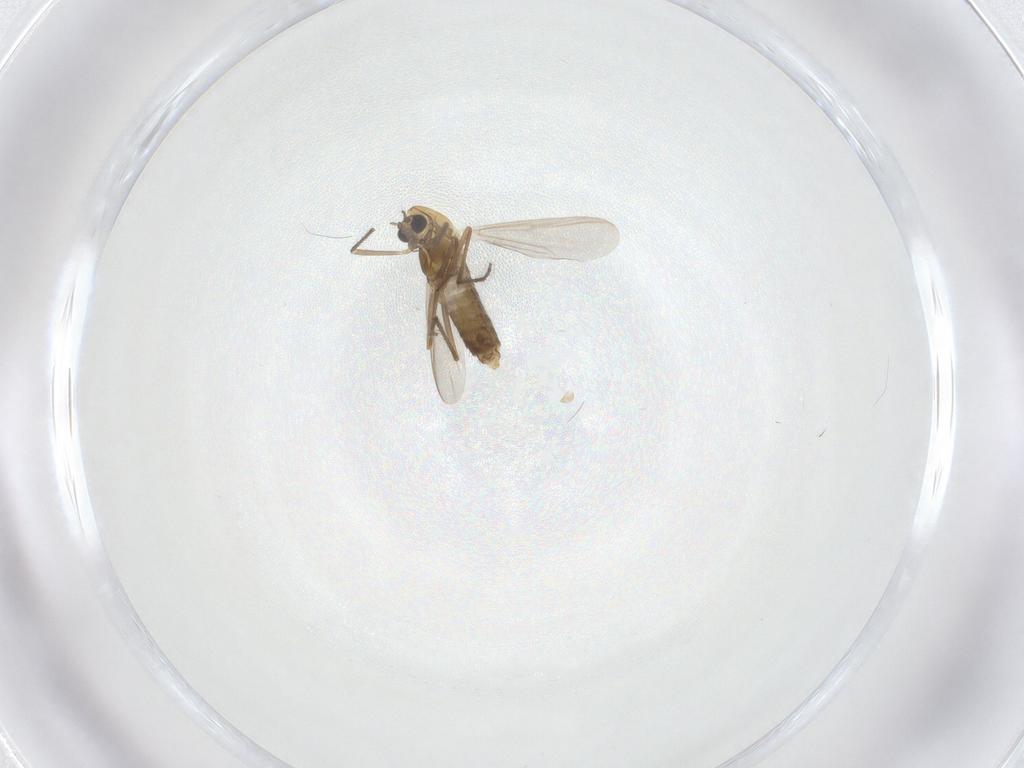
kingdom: Animalia
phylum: Arthropoda
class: Insecta
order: Diptera
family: Chironomidae
